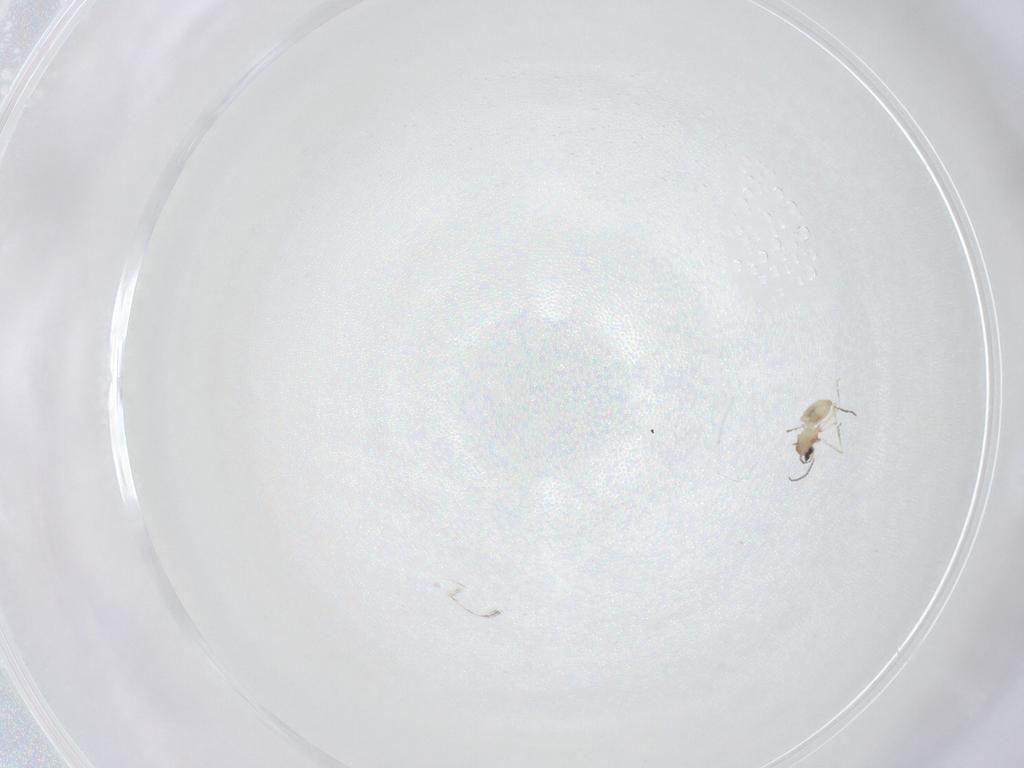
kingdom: Animalia
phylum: Arthropoda
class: Insecta
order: Diptera
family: Cecidomyiidae
